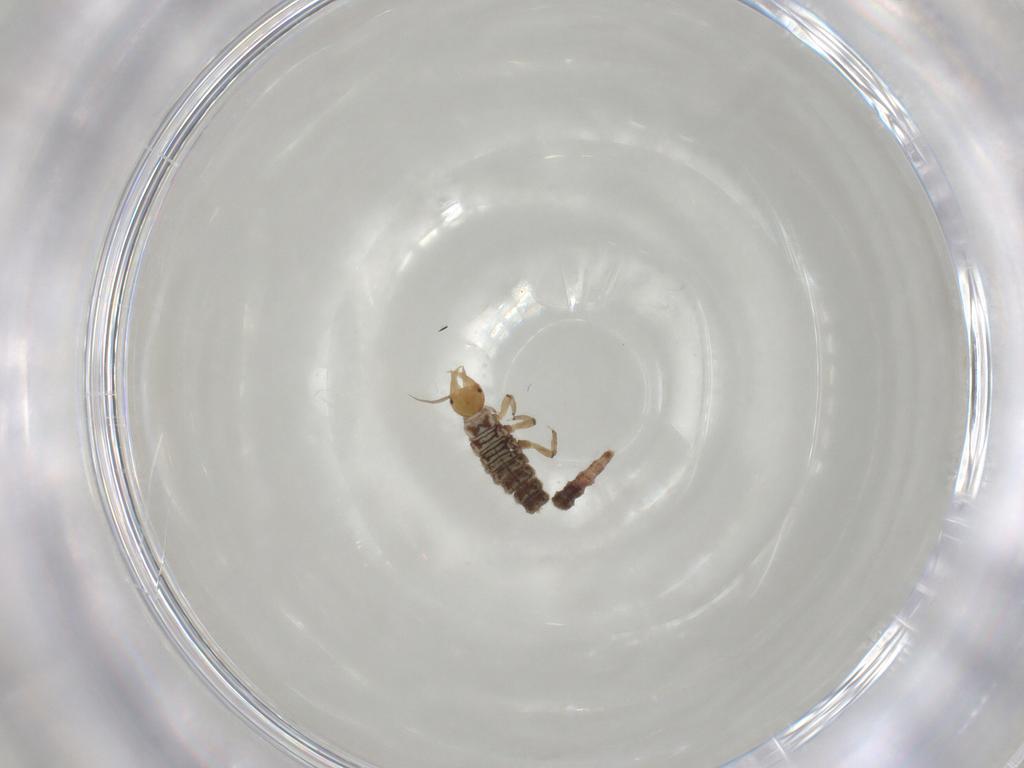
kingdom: Animalia
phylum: Arthropoda
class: Insecta
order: Neuroptera
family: Hemerobiidae
